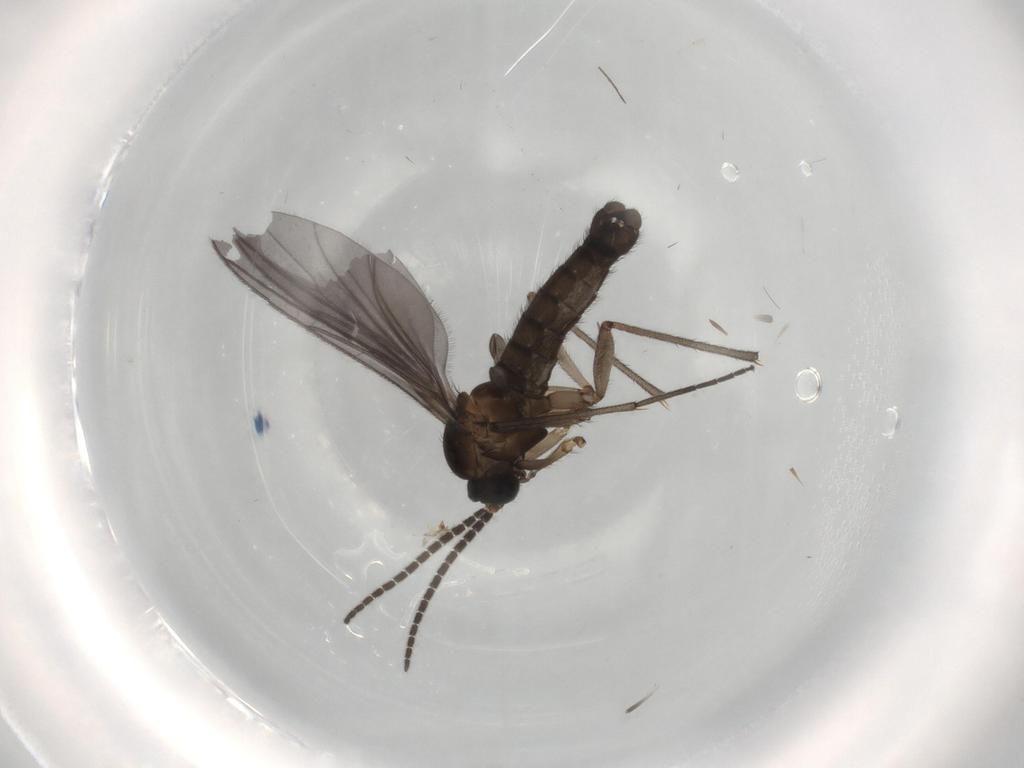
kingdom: Animalia
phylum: Arthropoda
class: Insecta
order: Diptera
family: Sciaridae
